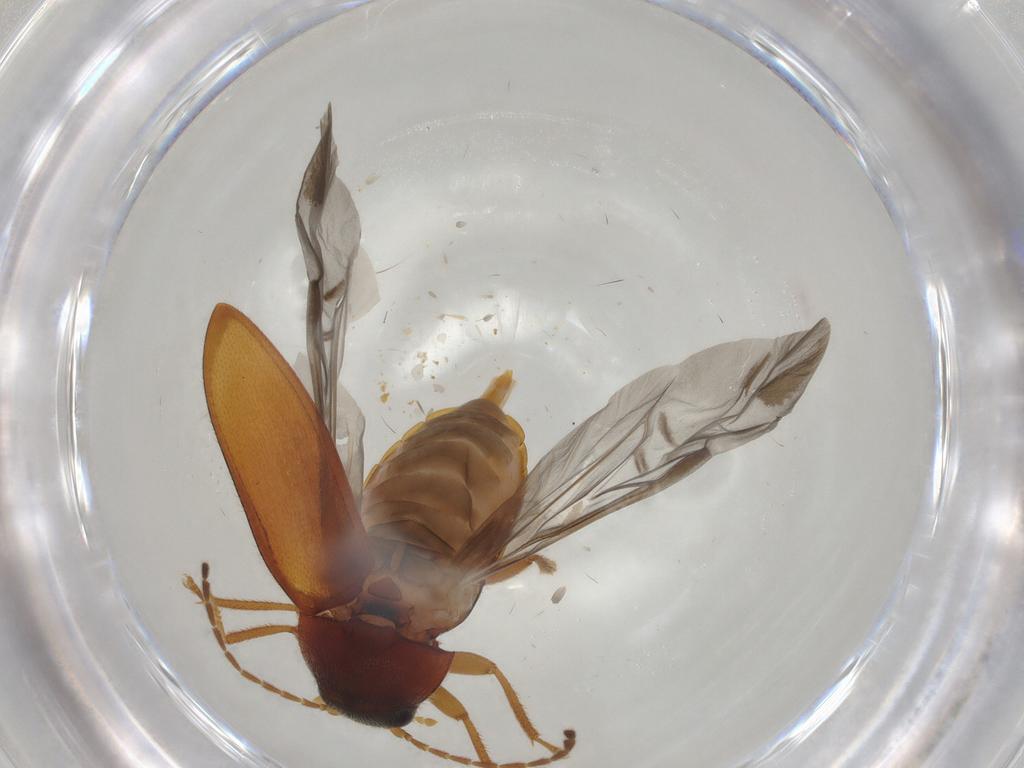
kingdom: Animalia
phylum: Arthropoda
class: Insecta
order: Coleoptera
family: Ptilodactylidae
